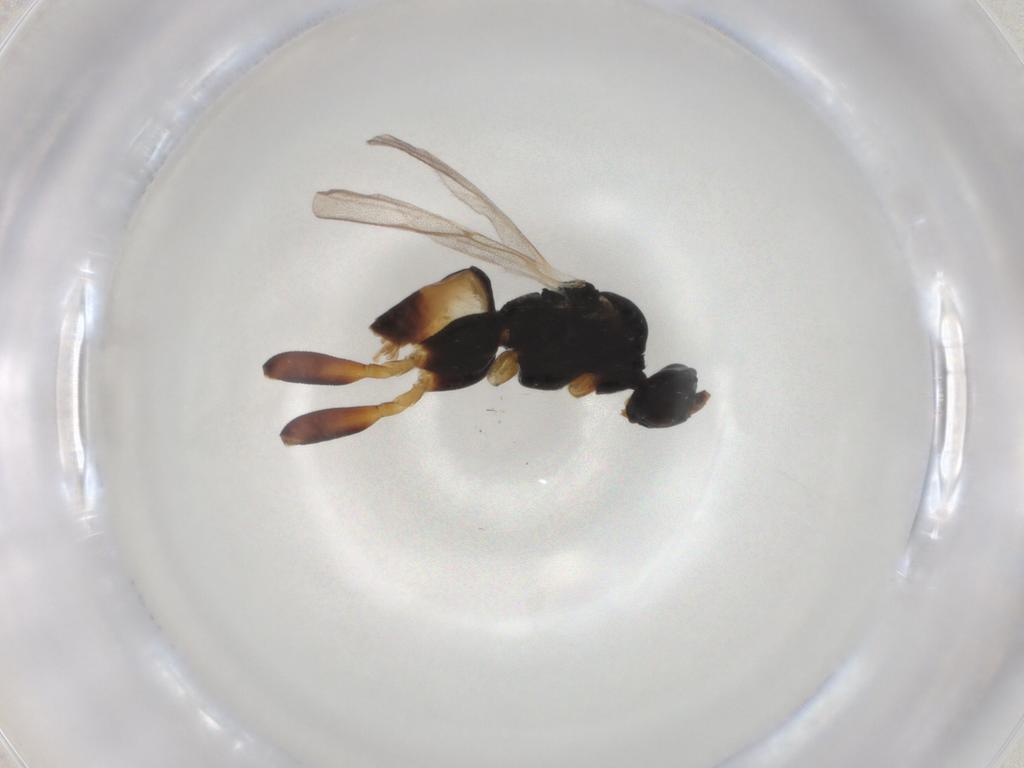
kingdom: Animalia
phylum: Arthropoda
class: Insecta
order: Hymenoptera
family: Braconidae
